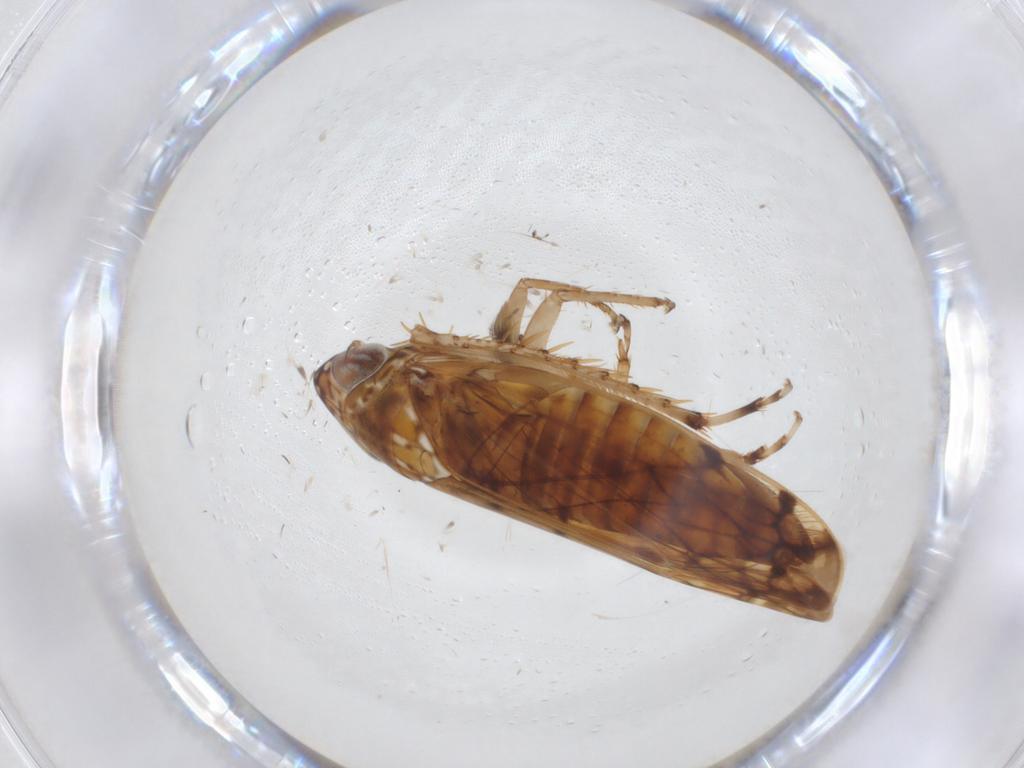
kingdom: Animalia
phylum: Arthropoda
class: Insecta
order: Hemiptera
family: Cicadellidae
